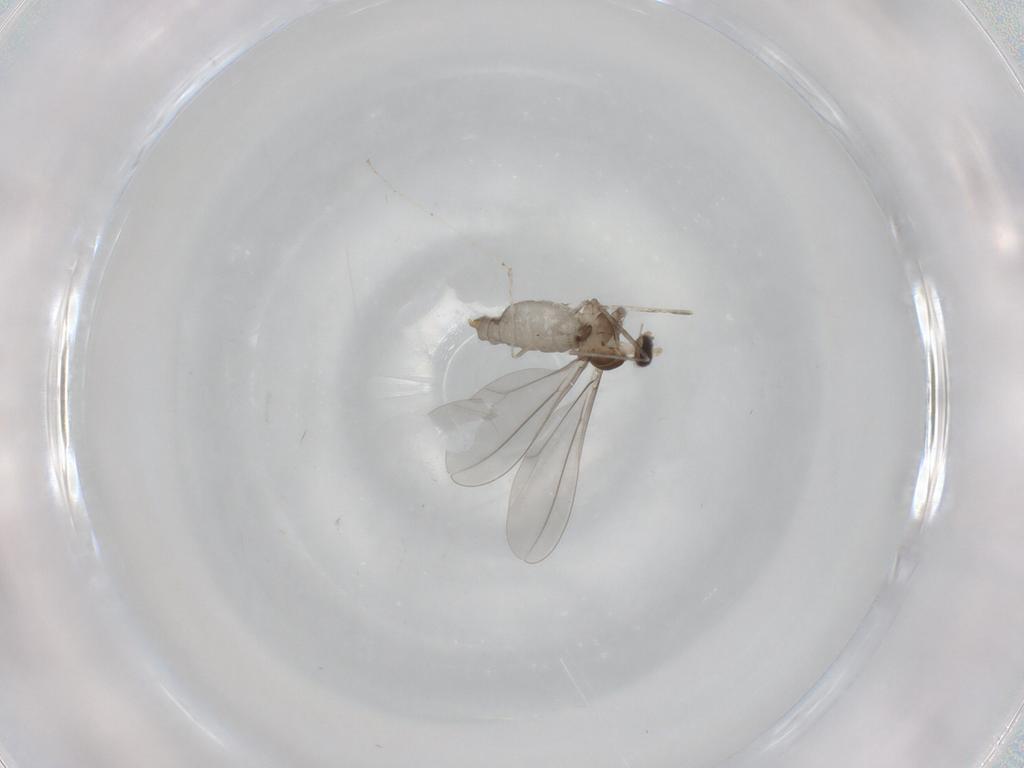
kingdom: Animalia
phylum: Arthropoda
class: Insecta
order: Diptera
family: Cecidomyiidae
